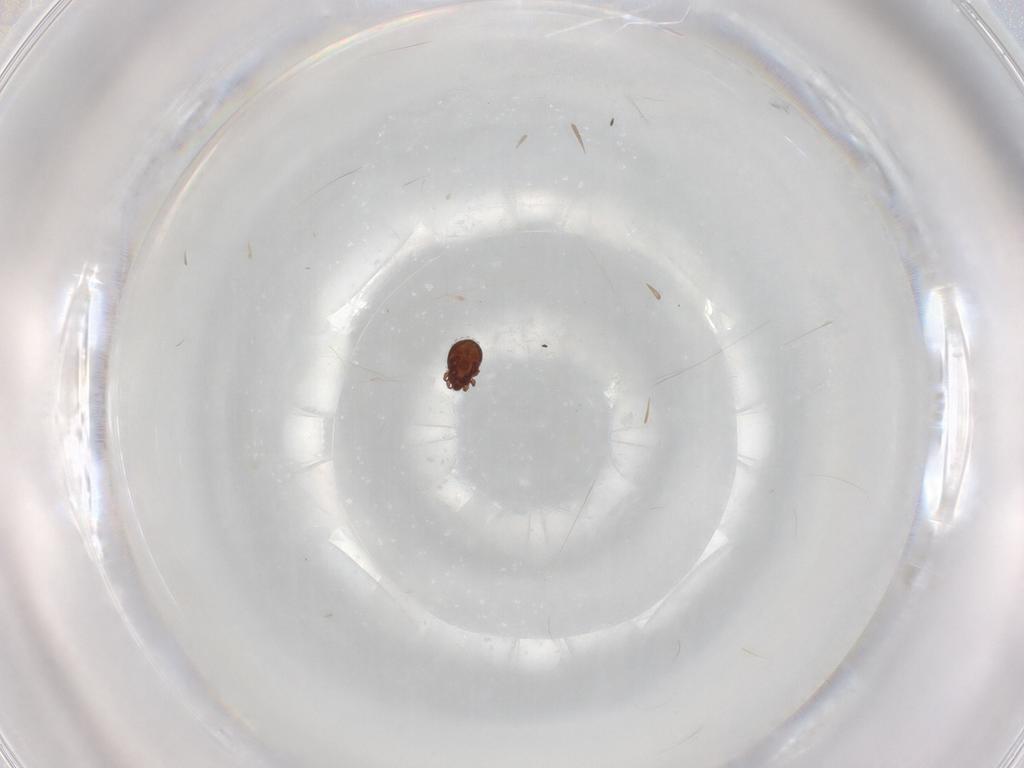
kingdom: Animalia
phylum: Arthropoda
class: Arachnida
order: Sarcoptiformes
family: Scheloribatidae
